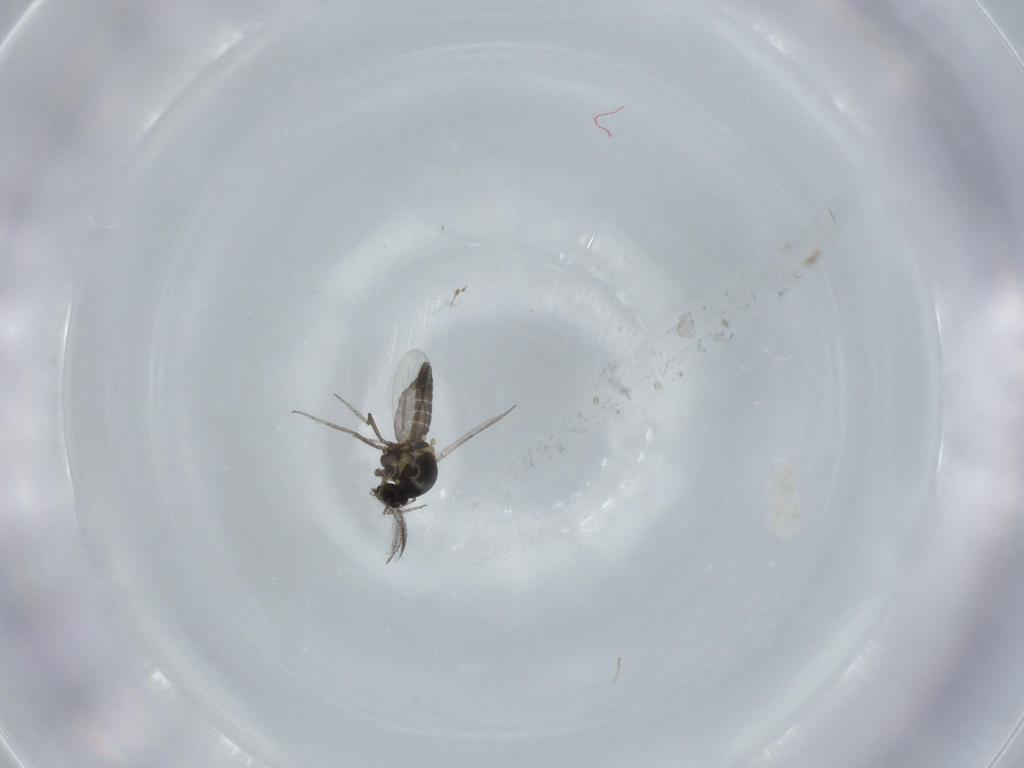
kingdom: Animalia
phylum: Arthropoda
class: Insecta
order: Diptera
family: Ceratopogonidae
